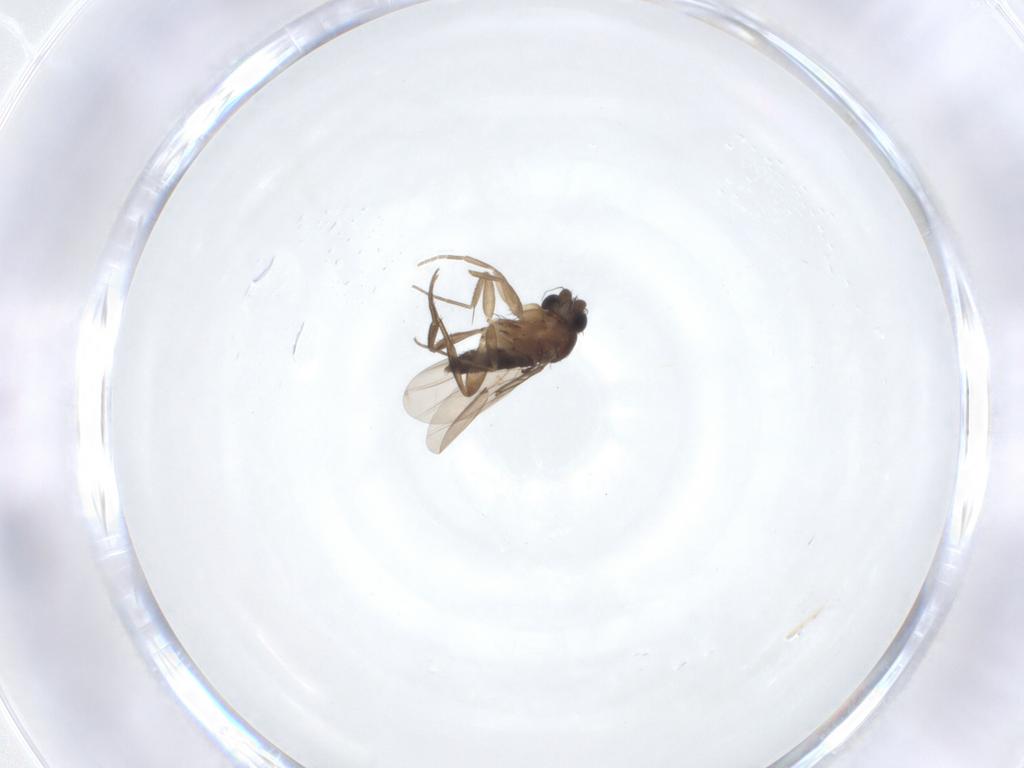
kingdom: Animalia
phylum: Arthropoda
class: Insecta
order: Diptera
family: Phoridae
